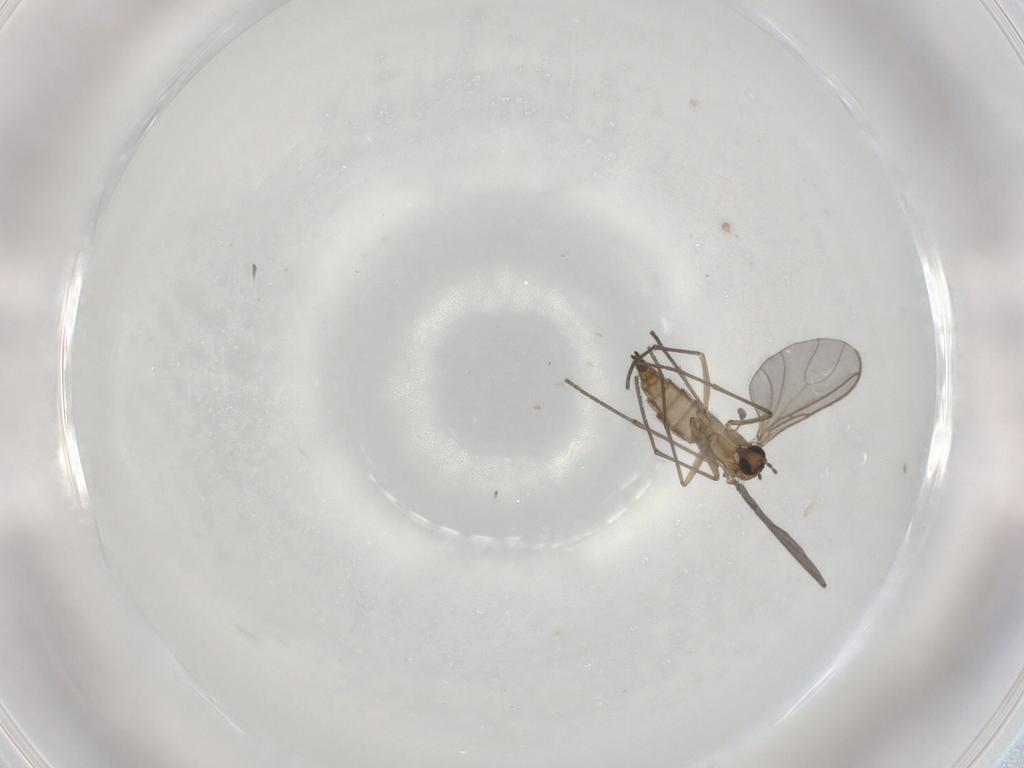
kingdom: Animalia
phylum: Arthropoda
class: Insecta
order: Diptera
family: Sciaridae
